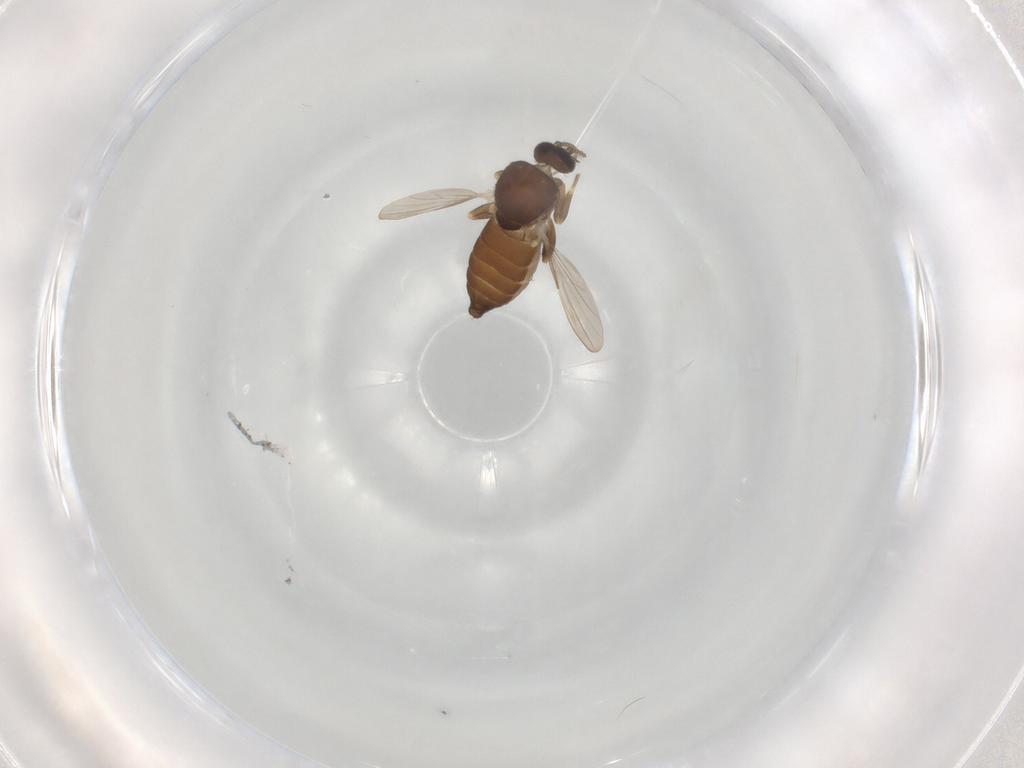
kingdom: Animalia
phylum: Arthropoda
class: Insecta
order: Diptera
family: Ceratopogonidae
